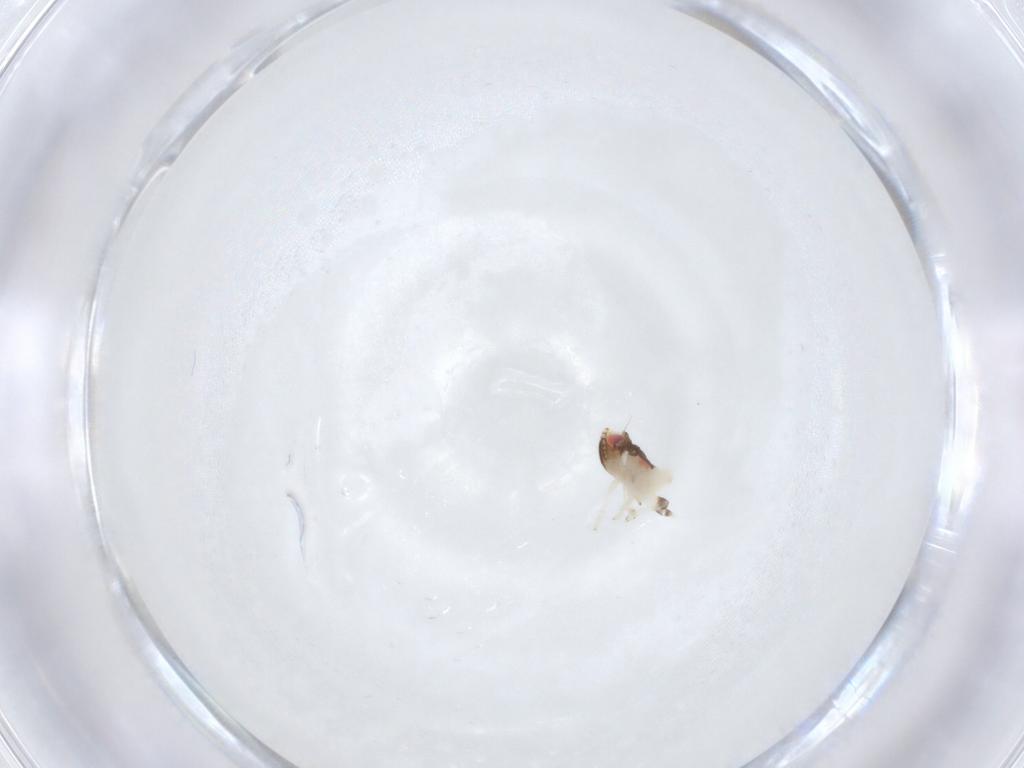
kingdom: Animalia
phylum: Arthropoda
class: Insecta
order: Hemiptera
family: Nogodinidae
